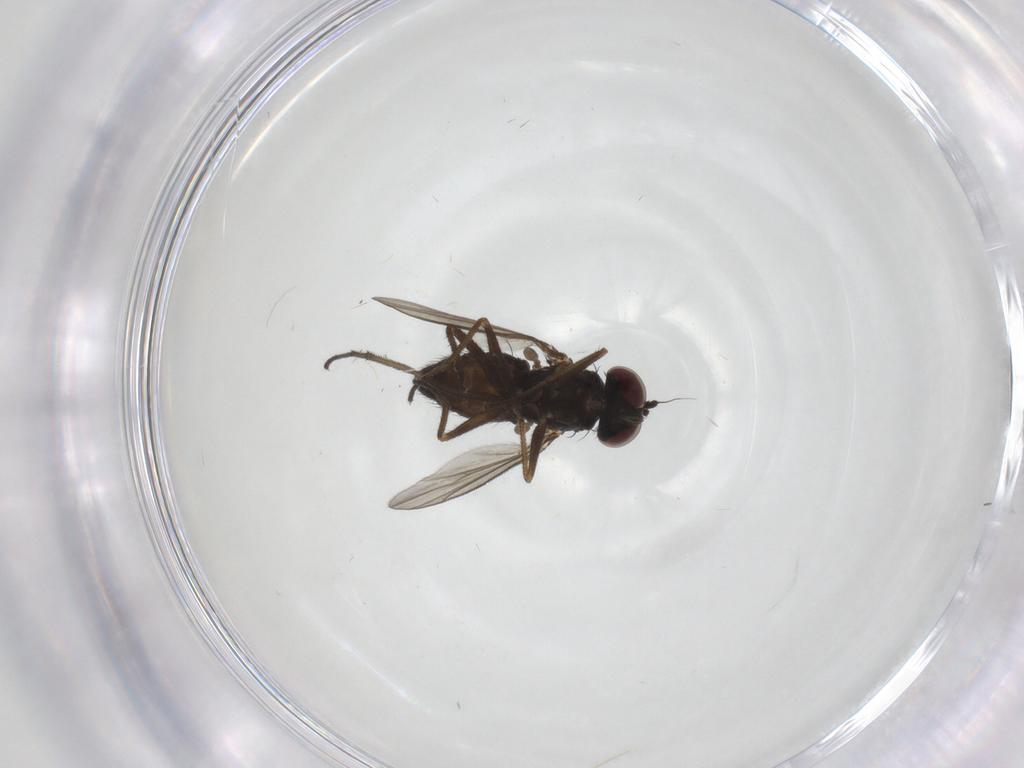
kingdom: Animalia
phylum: Arthropoda
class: Insecta
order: Diptera
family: Dolichopodidae
